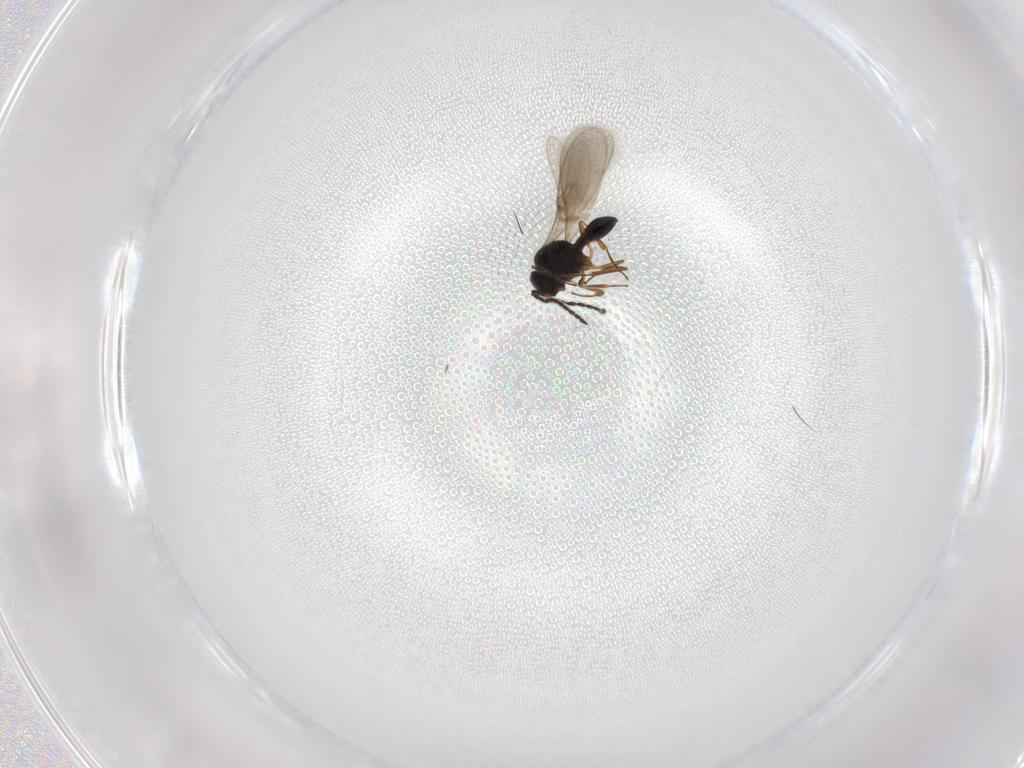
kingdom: Animalia
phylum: Arthropoda
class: Insecta
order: Hymenoptera
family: Scelionidae
